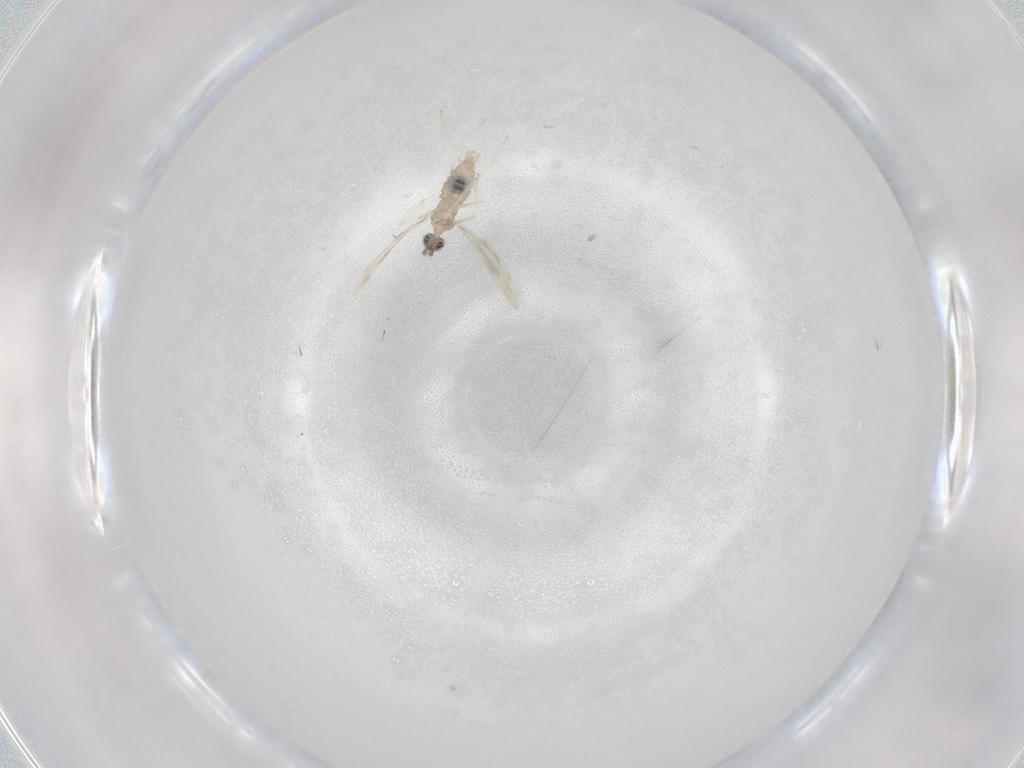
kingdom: Animalia
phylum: Arthropoda
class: Insecta
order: Diptera
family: Cecidomyiidae
